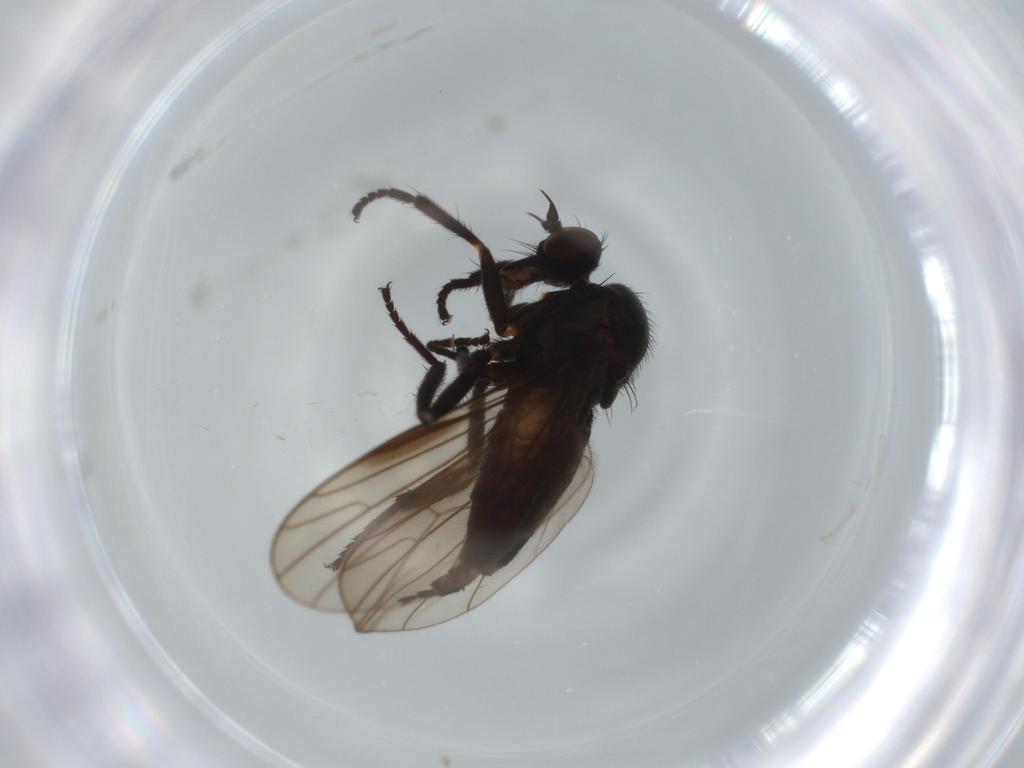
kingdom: Animalia
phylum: Arthropoda
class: Insecta
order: Diptera
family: Empididae
